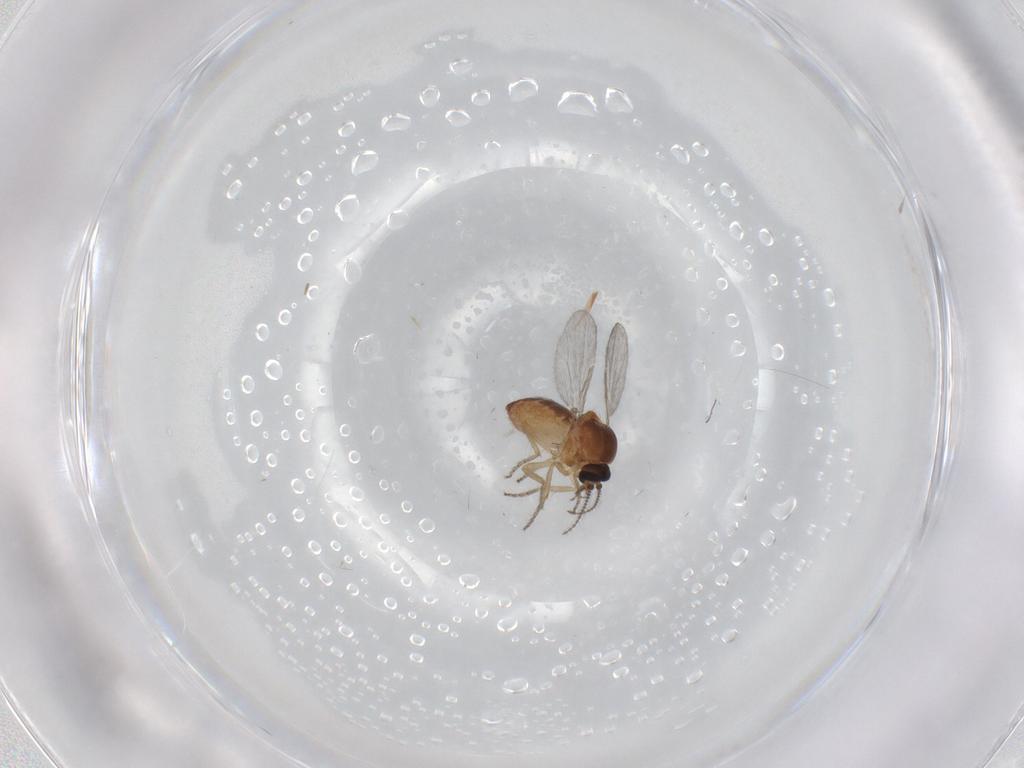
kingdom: Animalia
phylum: Arthropoda
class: Insecta
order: Diptera
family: Ceratopogonidae
